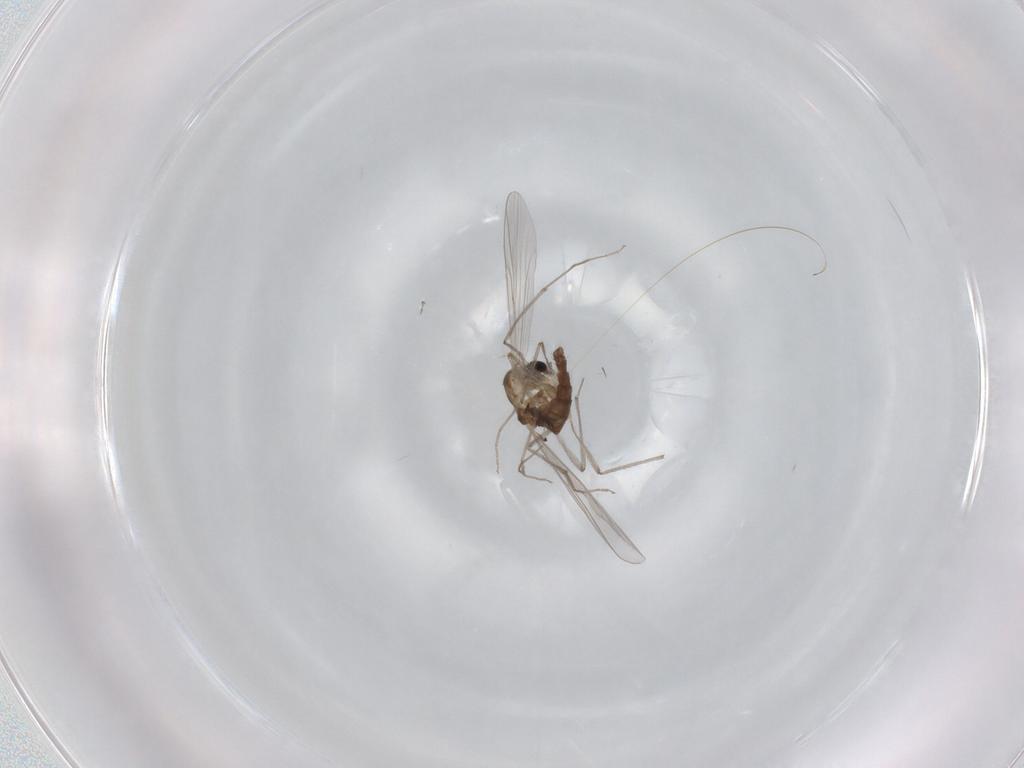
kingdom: Animalia
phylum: Arthropoda
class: Insecta
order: Diptera
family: Chironomidae
